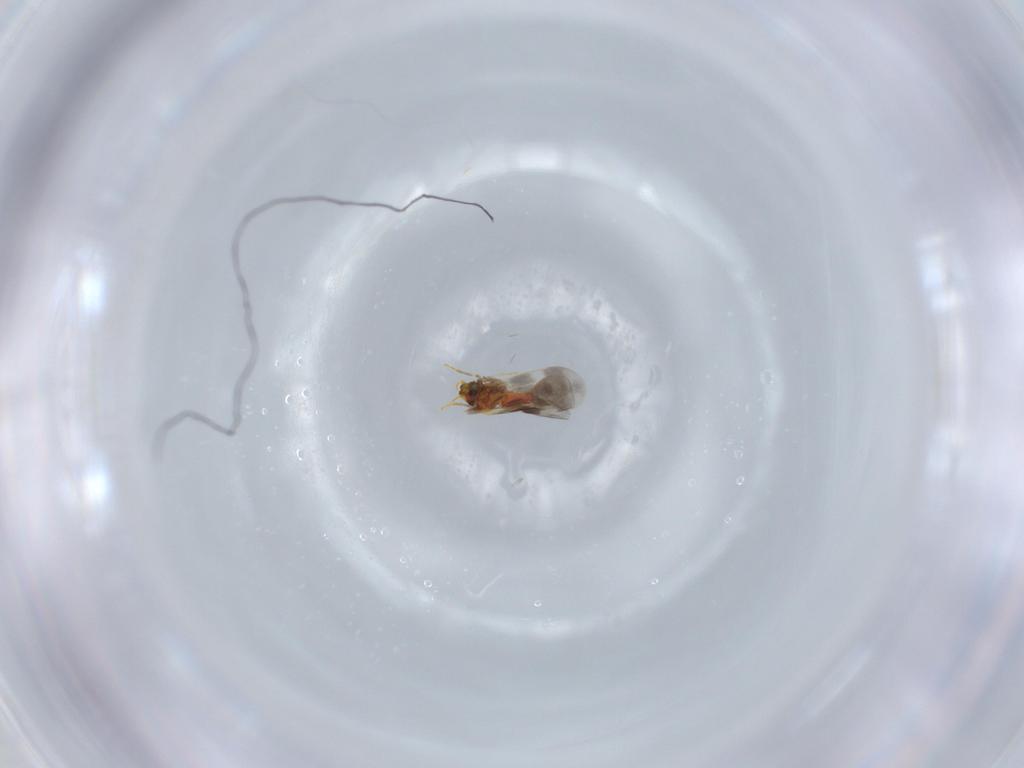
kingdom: Animalia
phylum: Arthropoda
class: Insecta
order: Hemiptera
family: Aleyrodidae
